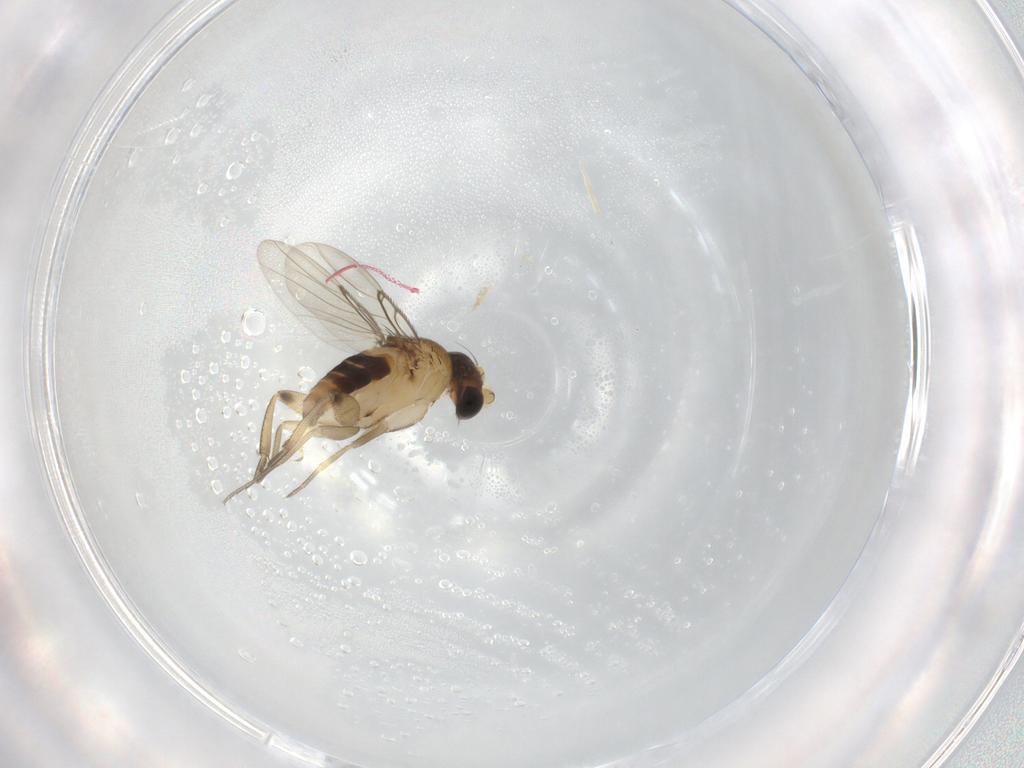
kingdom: Animalia
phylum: Arthropoda
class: Insecta
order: Diptera
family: Phoridae
